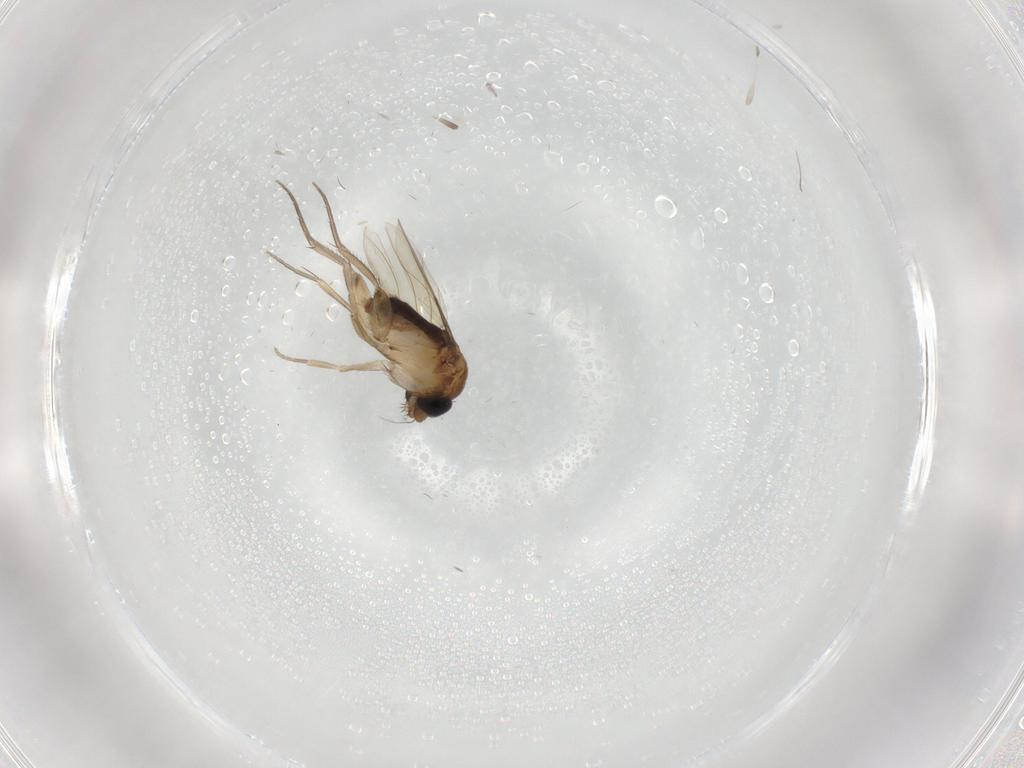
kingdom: Animalia
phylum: Arthropoda
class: Insecta
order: Diptera
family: Phoridae
